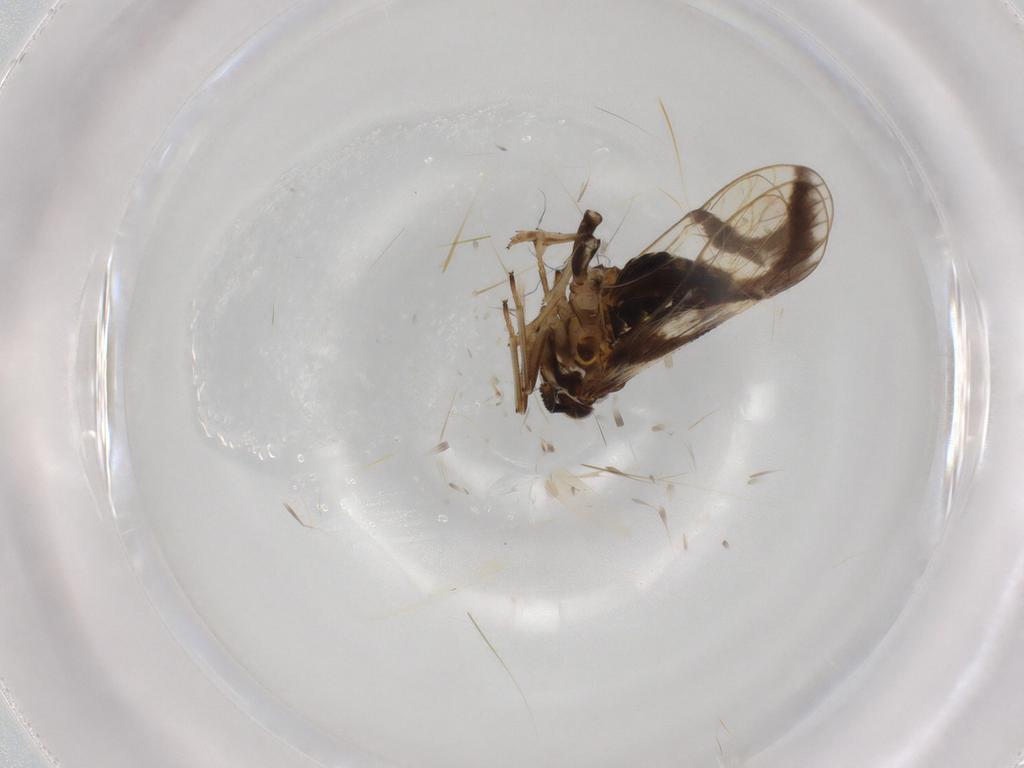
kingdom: Animalia
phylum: Arthropoda
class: Insecta
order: Hemiptera
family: Delphacidae
